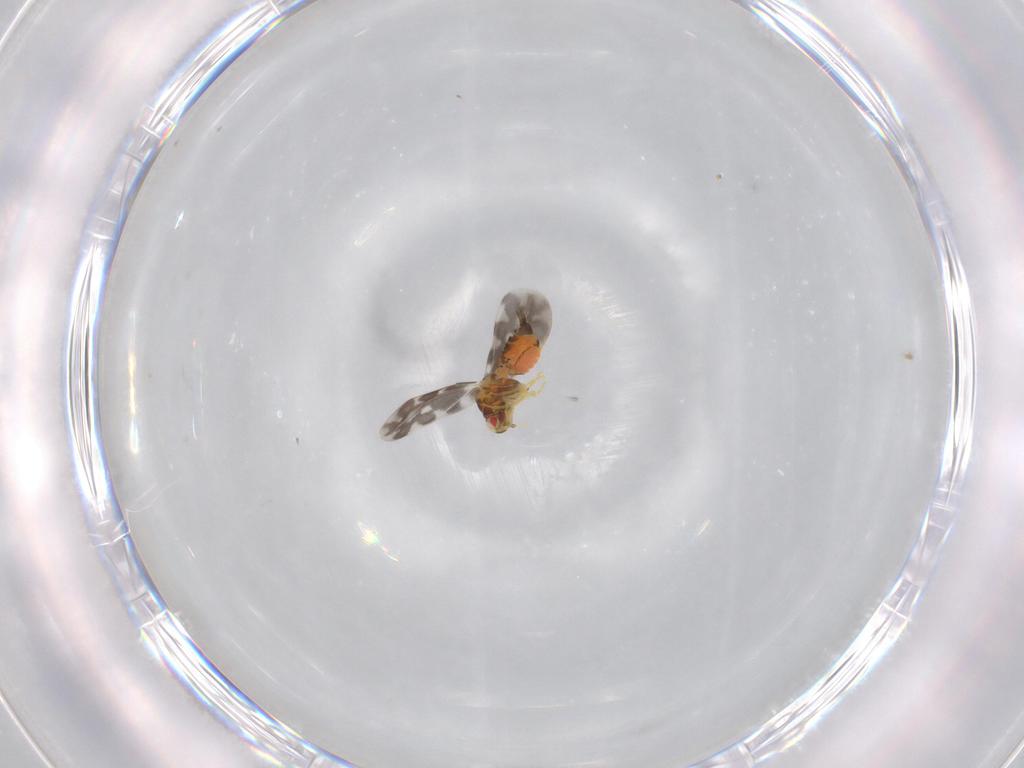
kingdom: Animalia
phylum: Arthropoda
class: Insecta
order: Hemiptera
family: Aleyrodidae
